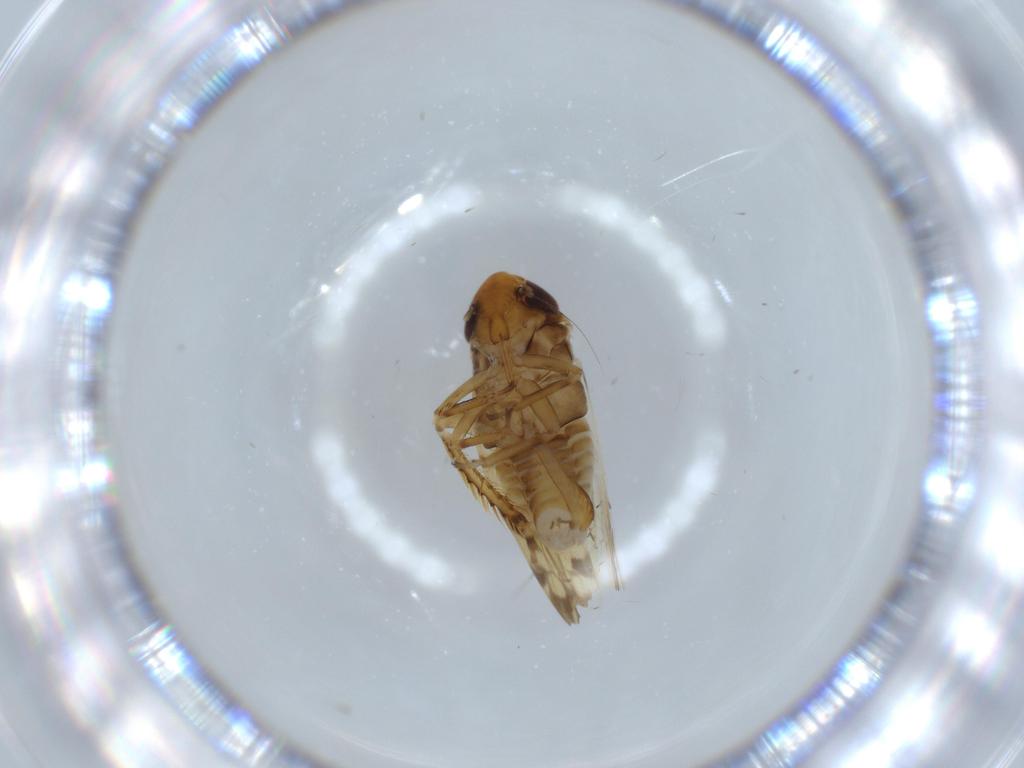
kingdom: Animalia
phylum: Arthropoda
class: Insecta
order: Hemiptera
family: Cicadellidae
